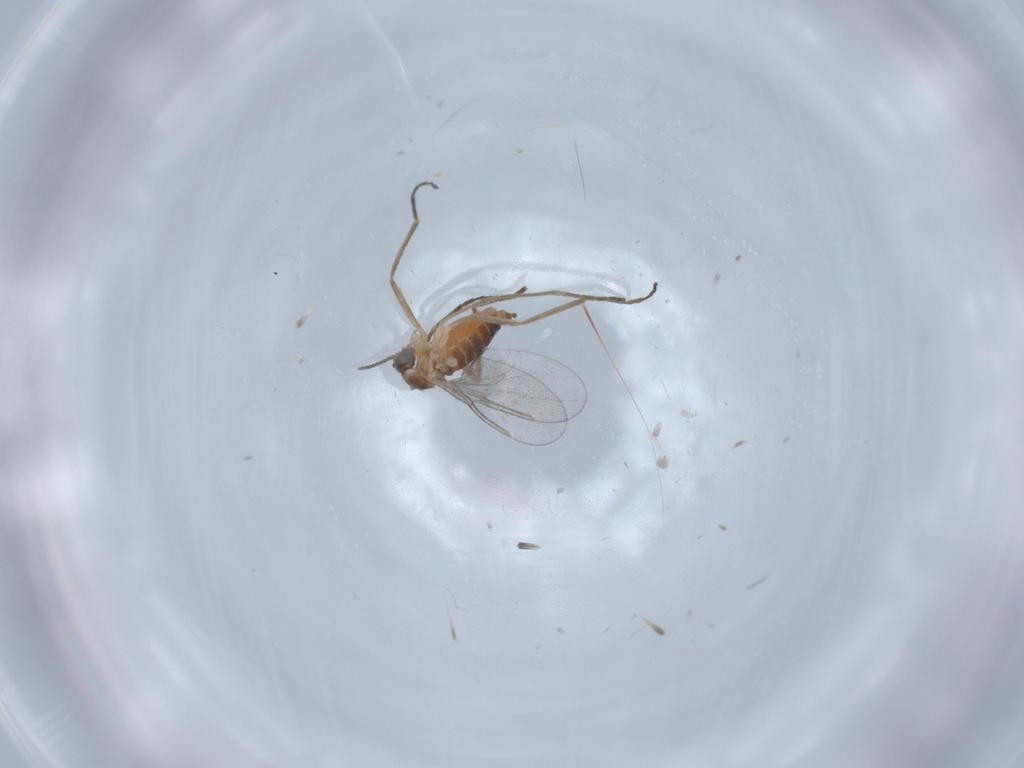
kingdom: Animalia
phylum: Arthropoda
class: Insecta
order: Diptera
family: Cecidomyiidae
